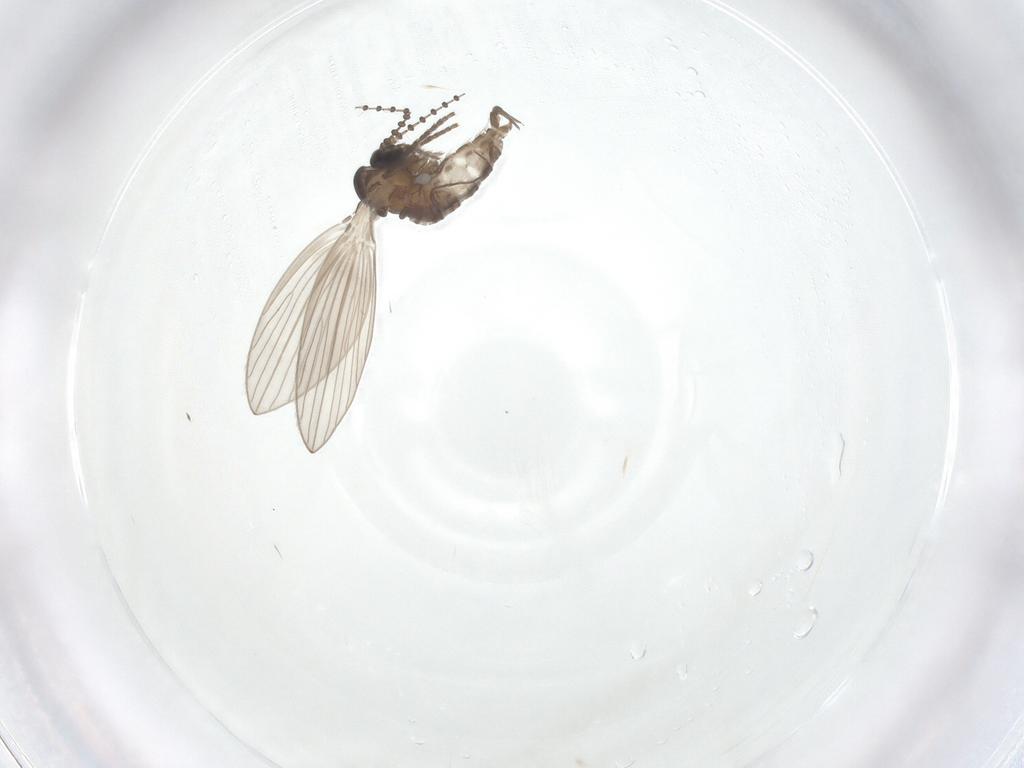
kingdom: Animalia
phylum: Arthropoda
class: Insecta
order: Diptera
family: Psychodidae
